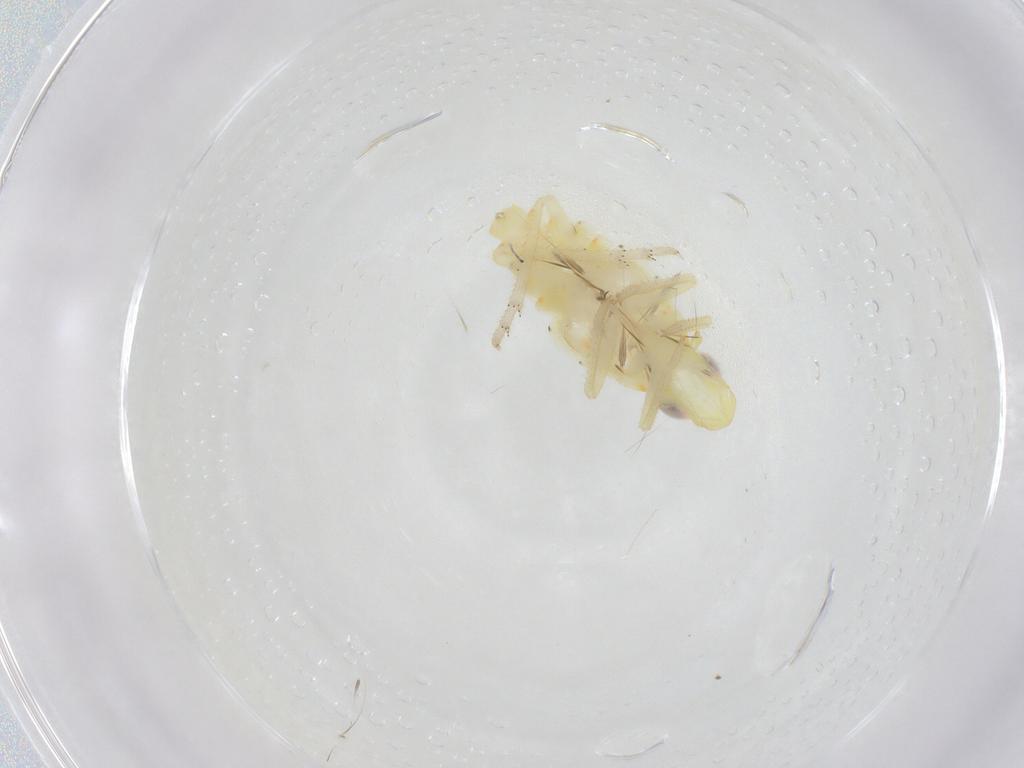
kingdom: Animalia
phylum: Arthropoda
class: Insecta
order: Hemiptera
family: Tropiduchidae
